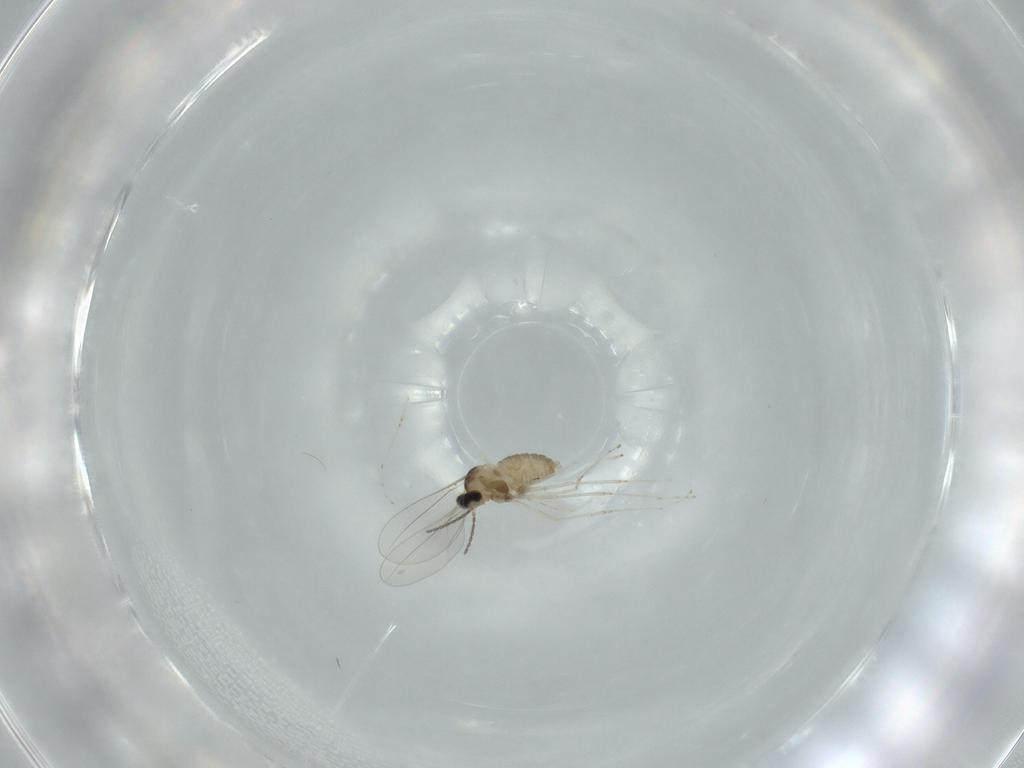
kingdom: Animalia
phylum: Arthropoda
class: Insecta
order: Diptera
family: Cecidomyiidae
